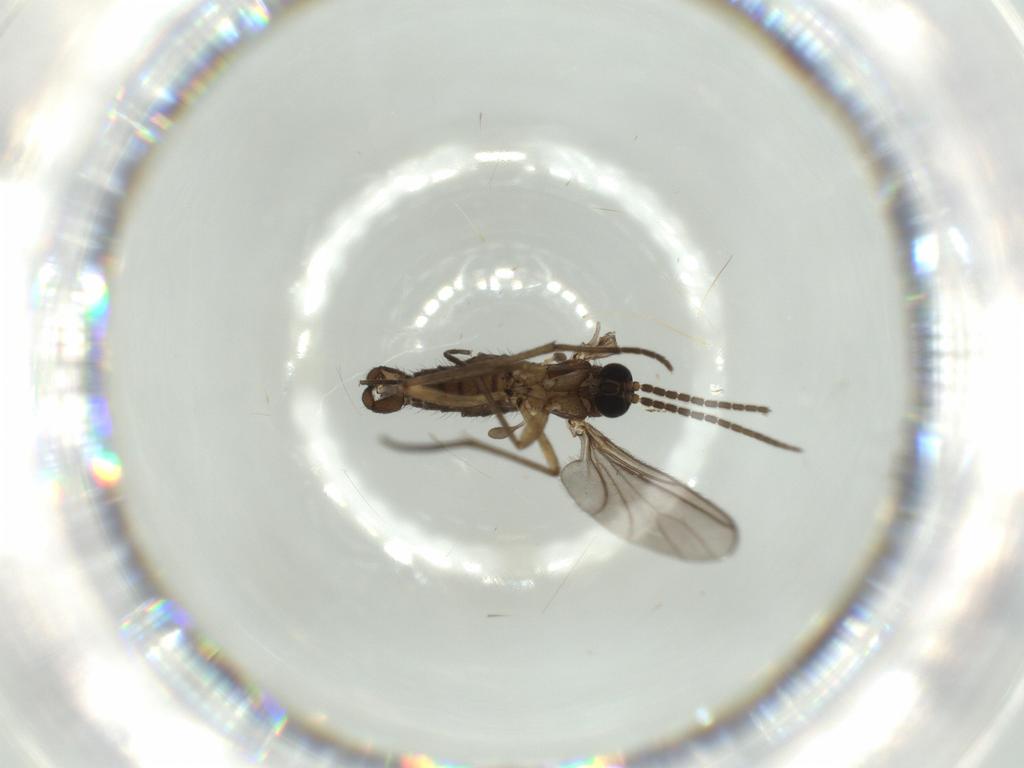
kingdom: Animalia
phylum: Arthropoda
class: Insecta
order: Diptera
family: Sciaridae
